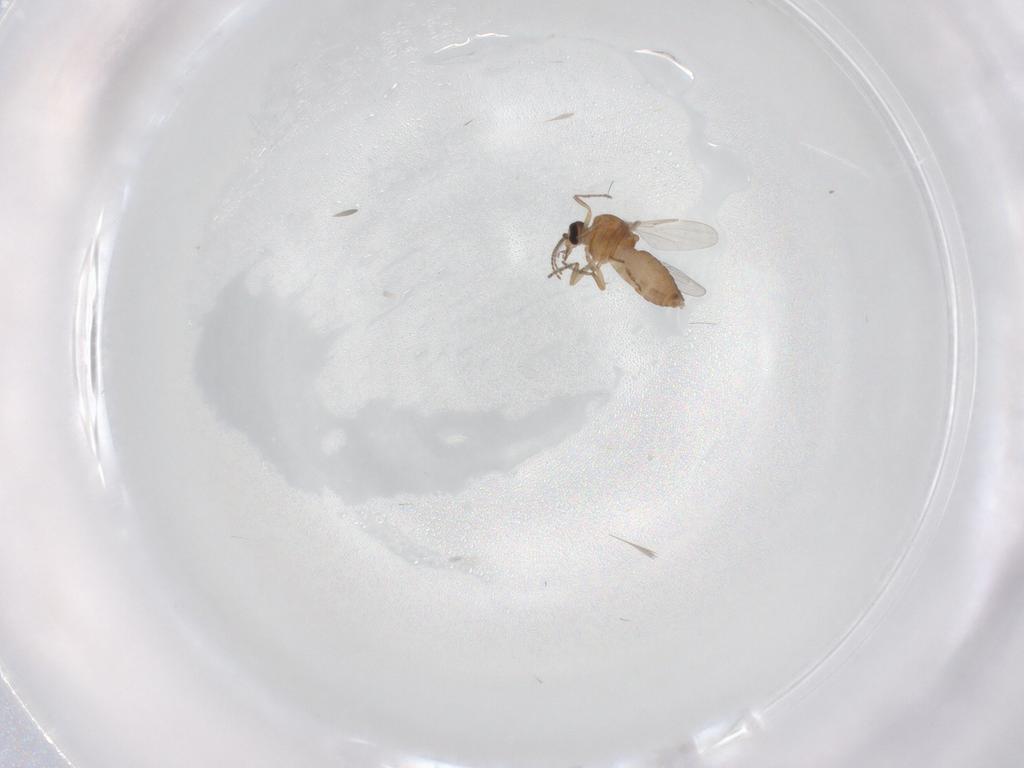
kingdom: Animalia
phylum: Arthropoda
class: Insecta
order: Diptera
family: Ceratopogonidae
